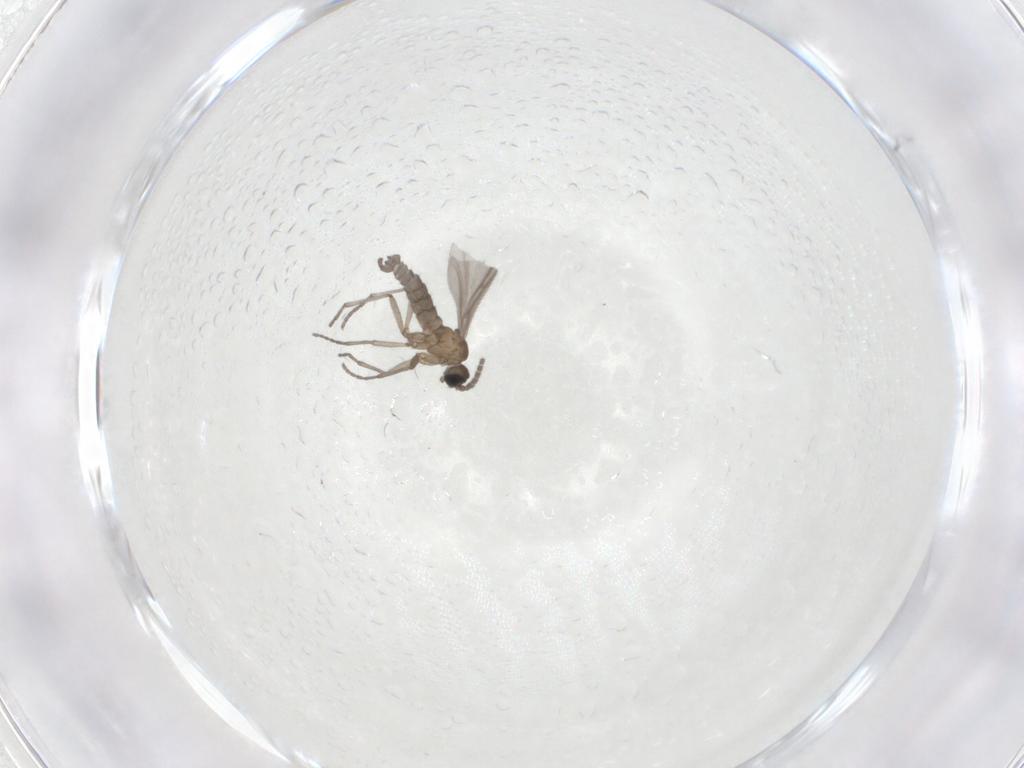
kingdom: Animalia
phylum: Arthropoda
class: Insecta
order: Diptera
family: Sciaridae
